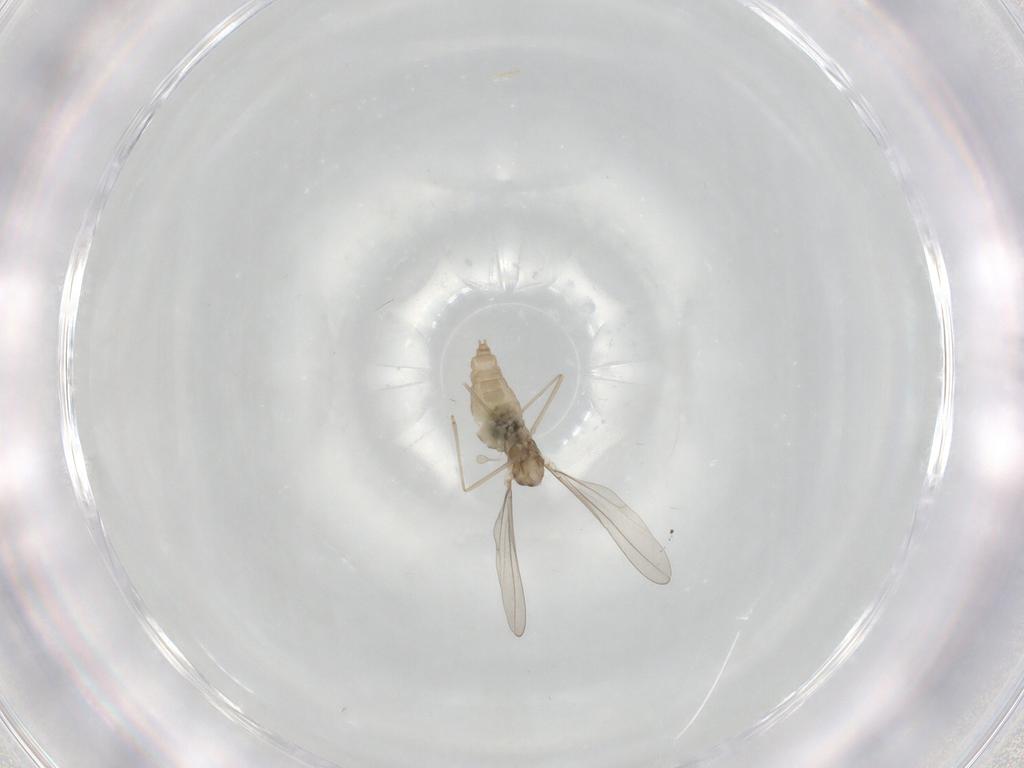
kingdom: Animalia
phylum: Arthropoda
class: Insecta
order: Diptera
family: Cecidomyiidae
